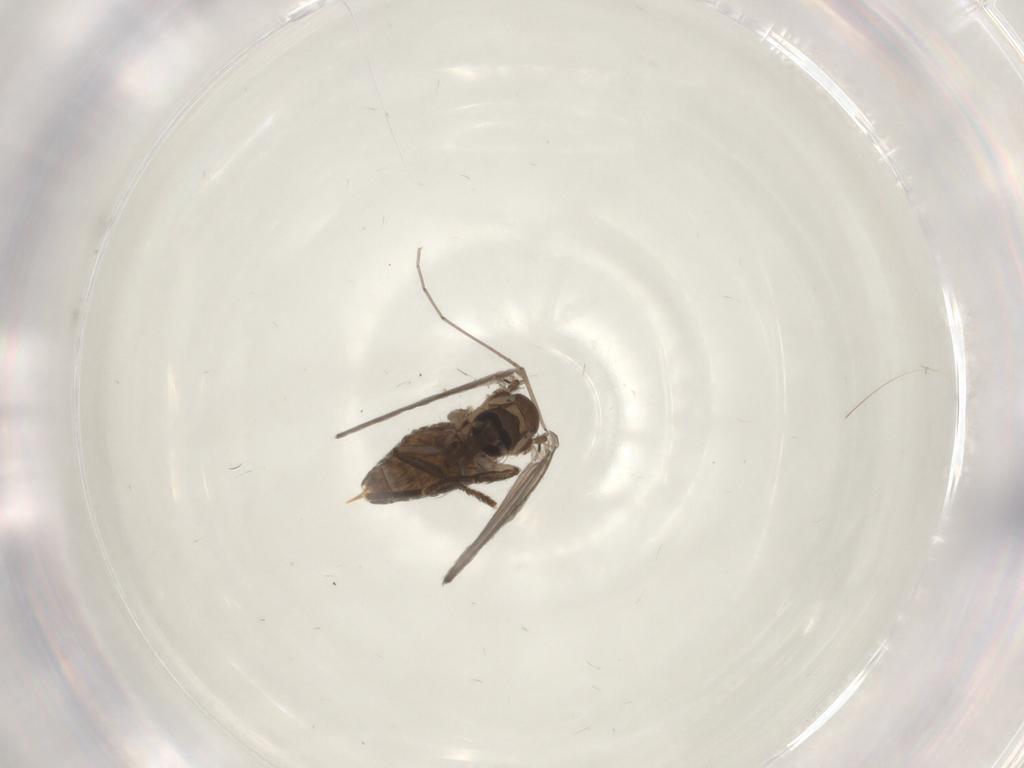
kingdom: Animalia
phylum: Arthropoda
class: Insecta
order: Diptera
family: Psychodidae
